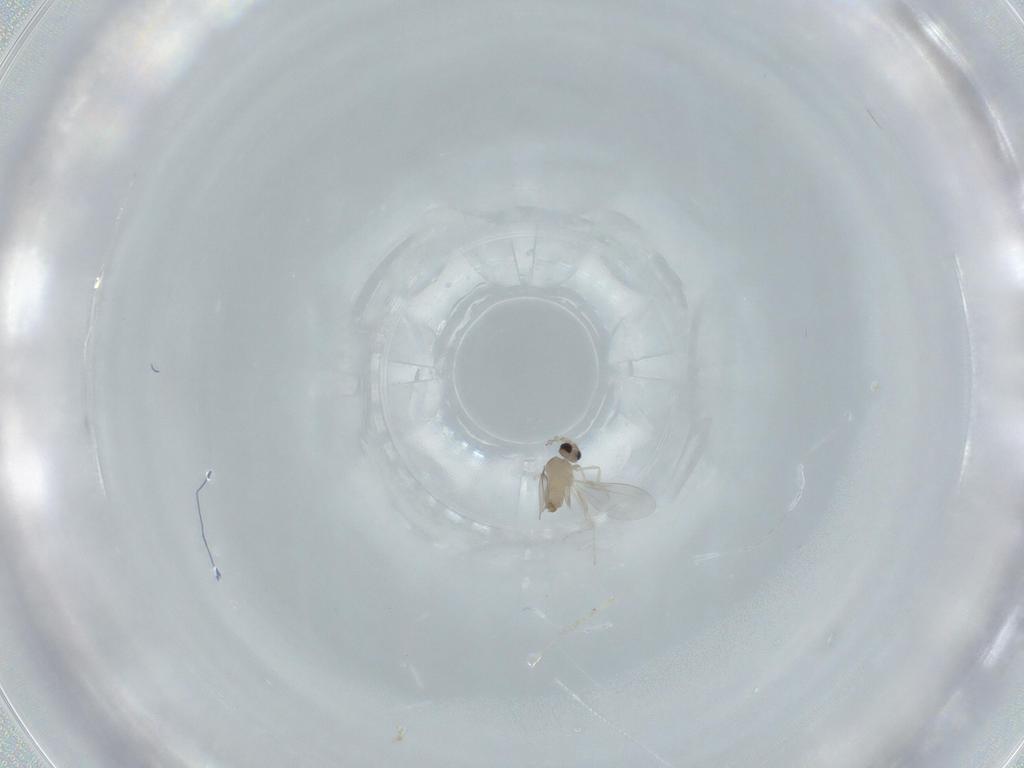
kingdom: Animalia
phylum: Arthropoda
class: Insecta
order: Diptera
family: Cecidomyiidae
